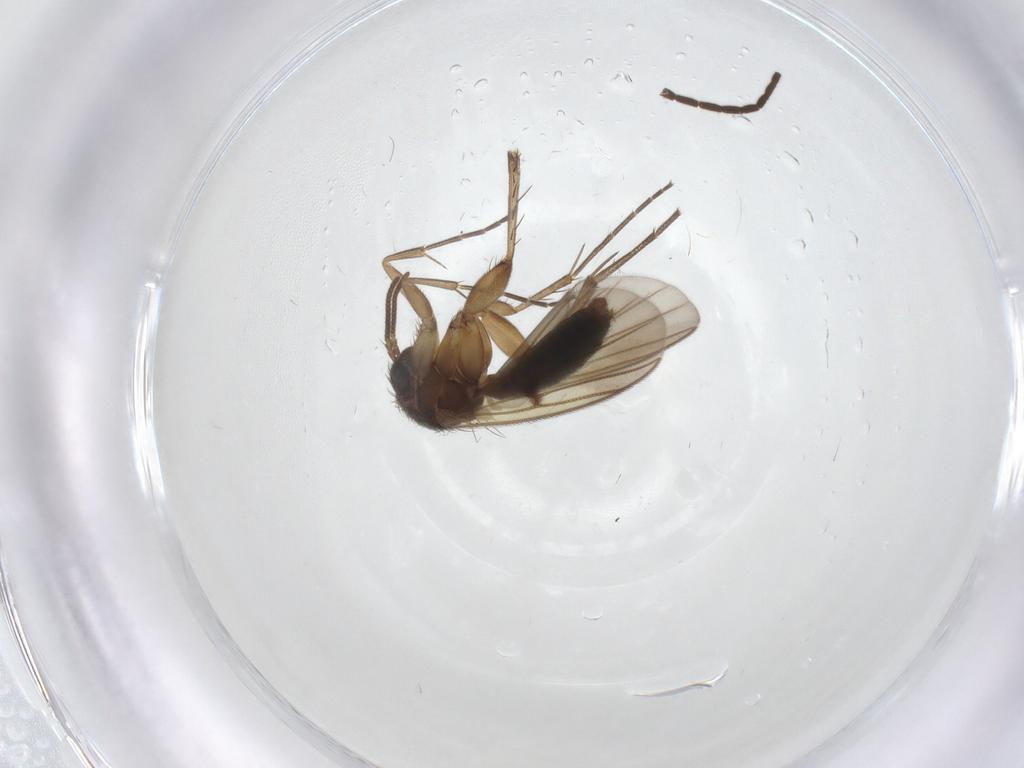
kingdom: Animalia
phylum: Arthropoda
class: Insecta
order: Diptera
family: Mycetophilidae
